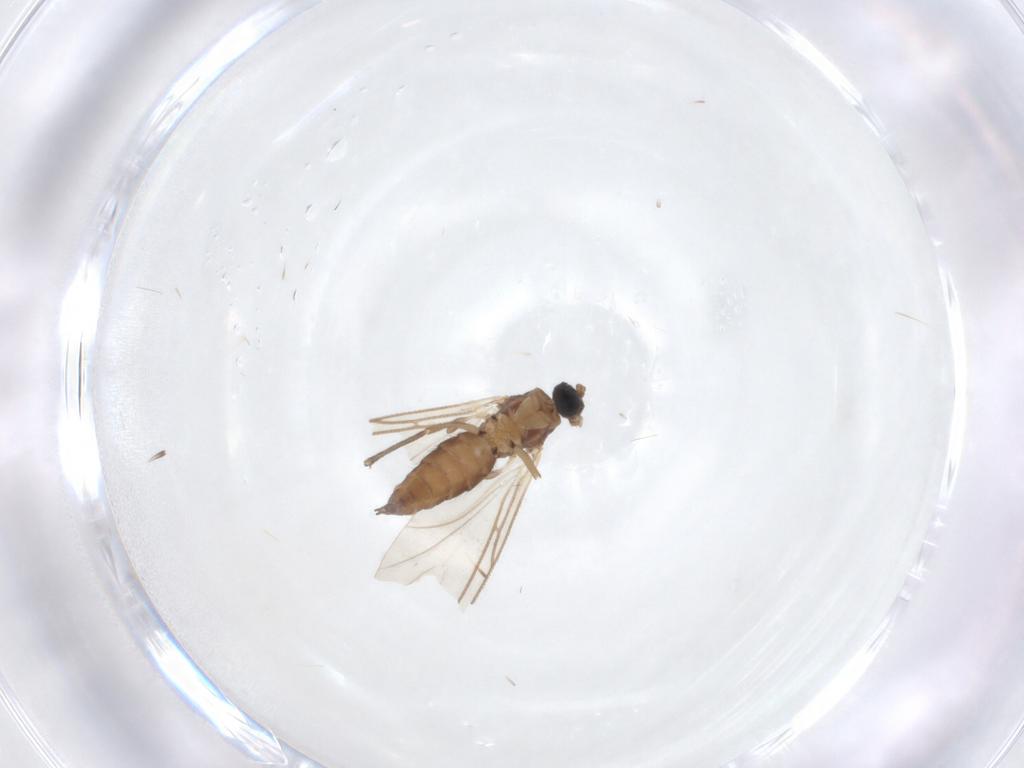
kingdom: Animalia
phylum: Arthropoda
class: Insecta
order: Diptera
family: Sciaridae
